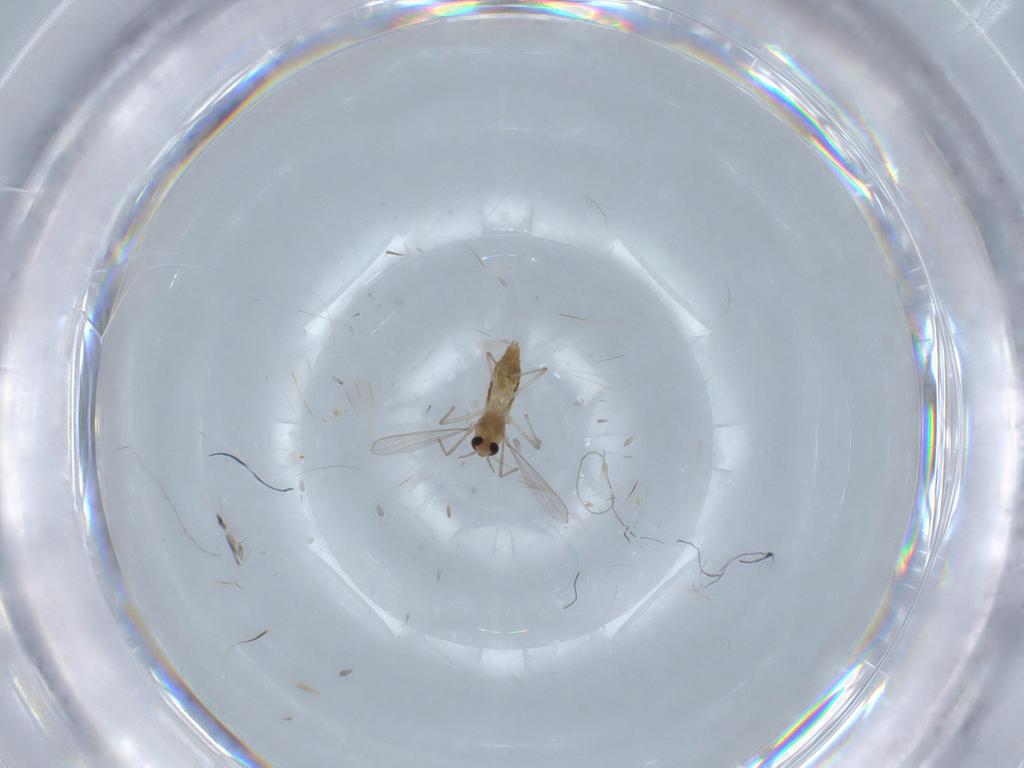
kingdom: Animalia
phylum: Arthropoda
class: Insecta
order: Diptera
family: Chironomidae
